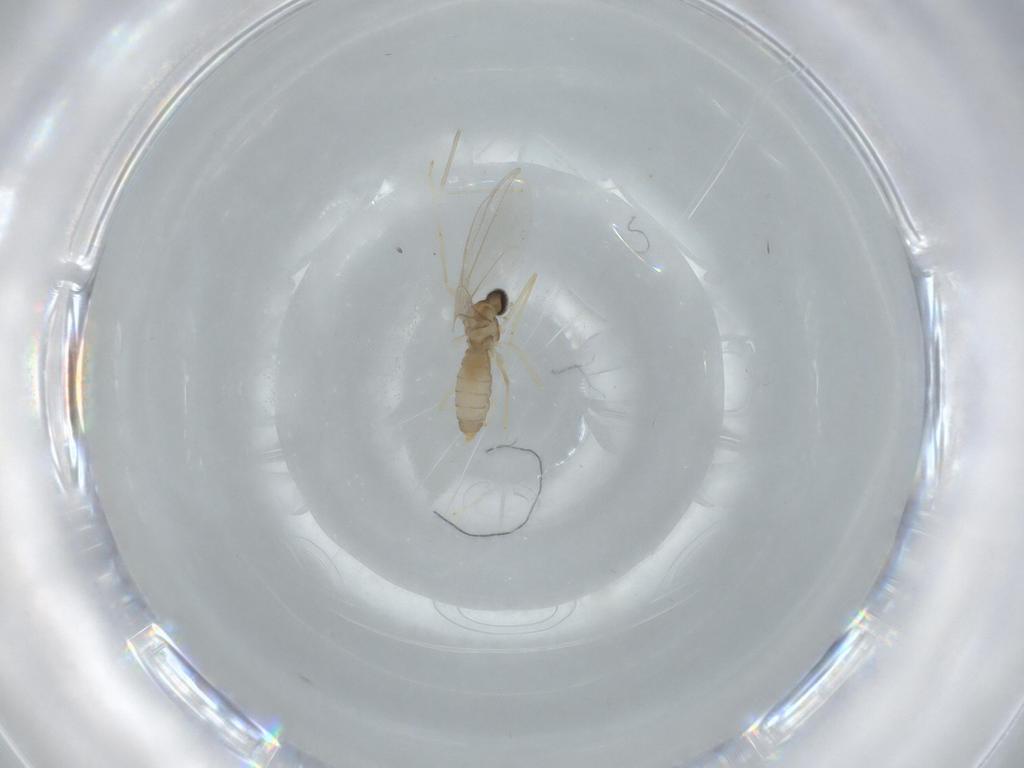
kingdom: Animalia
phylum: Arthropoda
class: Insecta
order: Diptera
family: Cecidomyiidae
